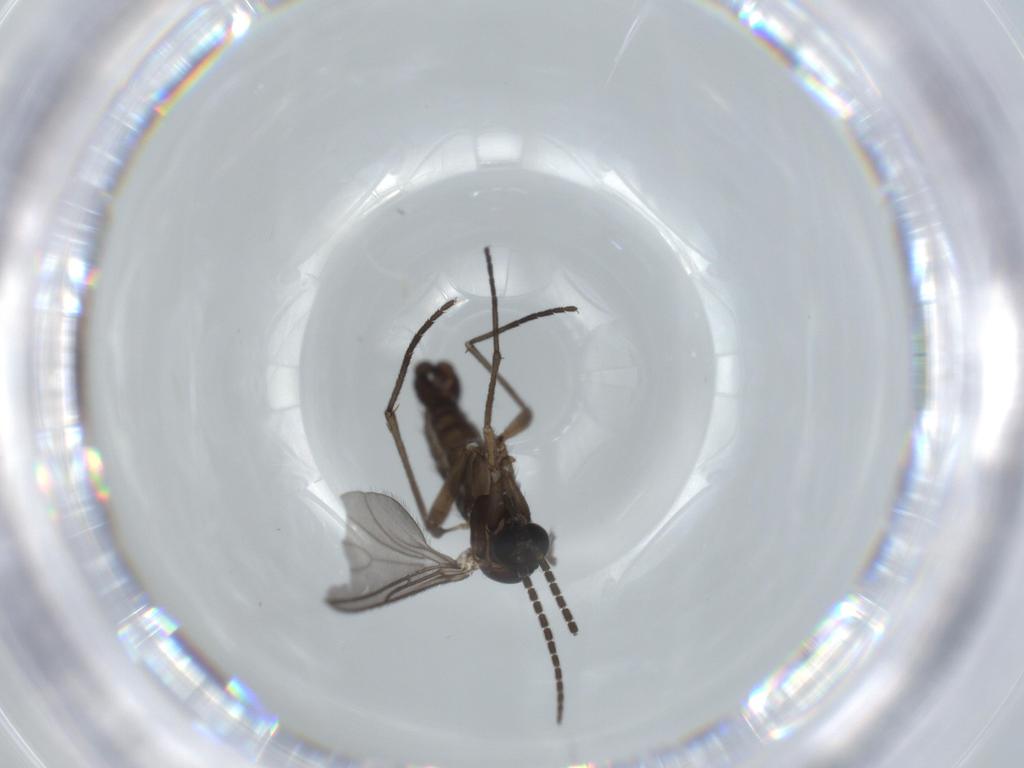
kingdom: Animalia
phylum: Arthropoda
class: Insecta
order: Diptera
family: Sciaridae
